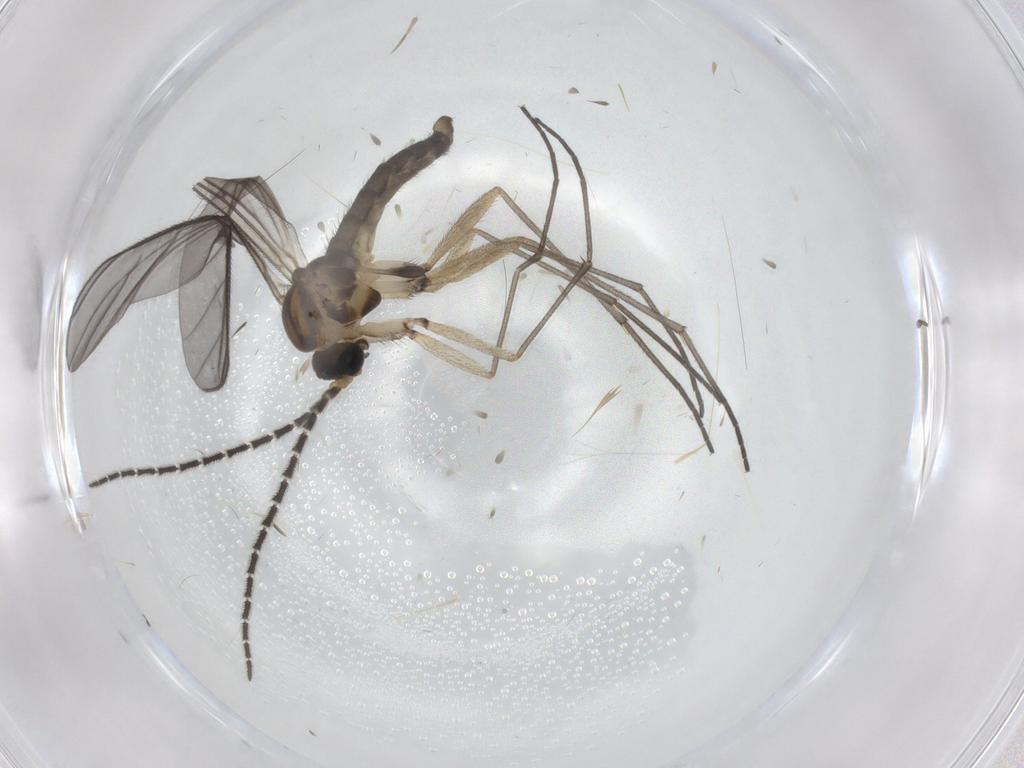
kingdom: Animalia
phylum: Arthropoda
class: Insecta
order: Diptera
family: Sciaridae
